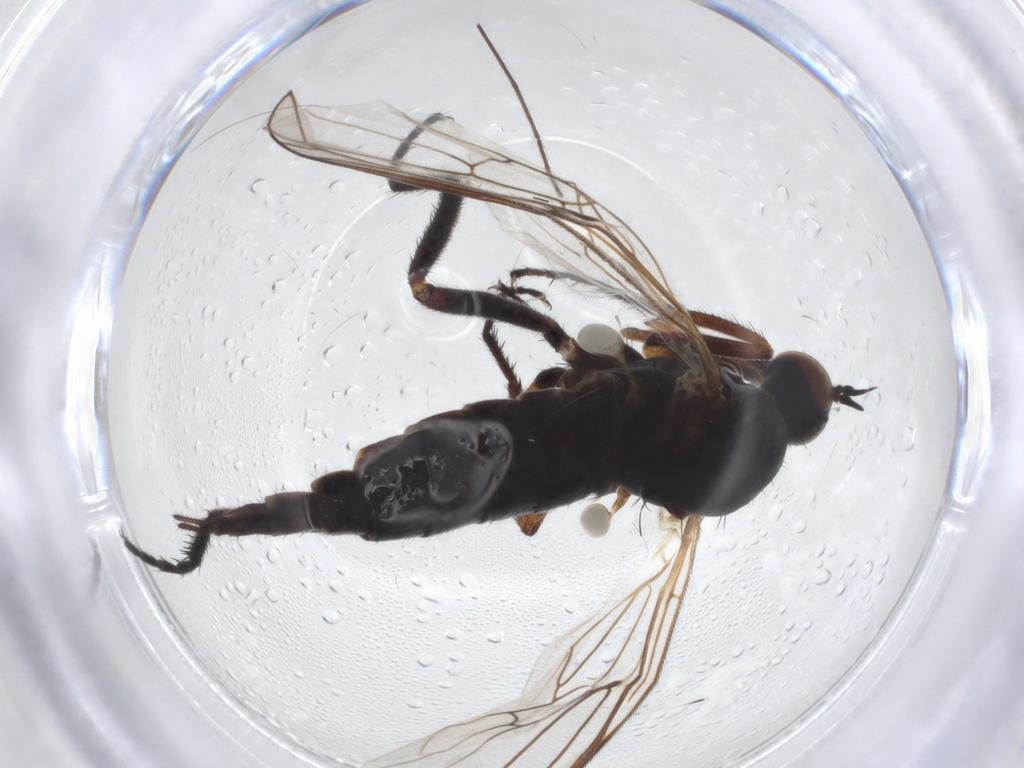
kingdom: Animalia
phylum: Arthropoda
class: Insecta
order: Diptera
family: Empididae
